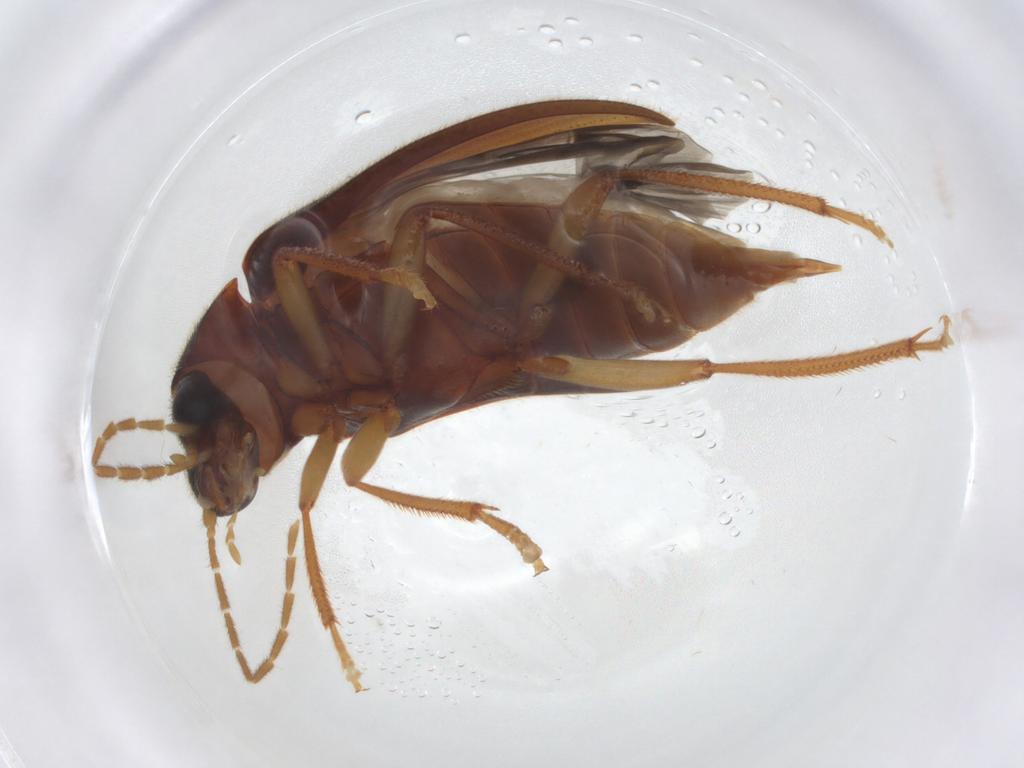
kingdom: Animalia
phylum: Arthropoda
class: Insecta
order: Coleoptera
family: Ptilodactylidae
